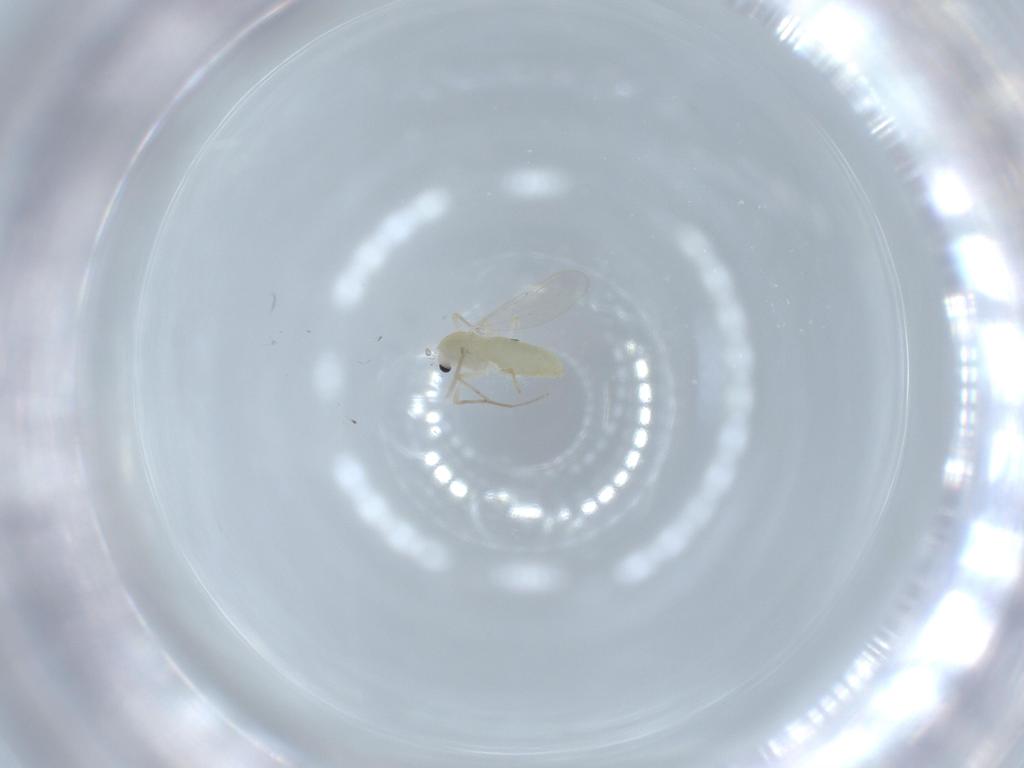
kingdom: Animalia
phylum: Arthropoda
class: Insecta
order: Diptera
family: Chironomidae
